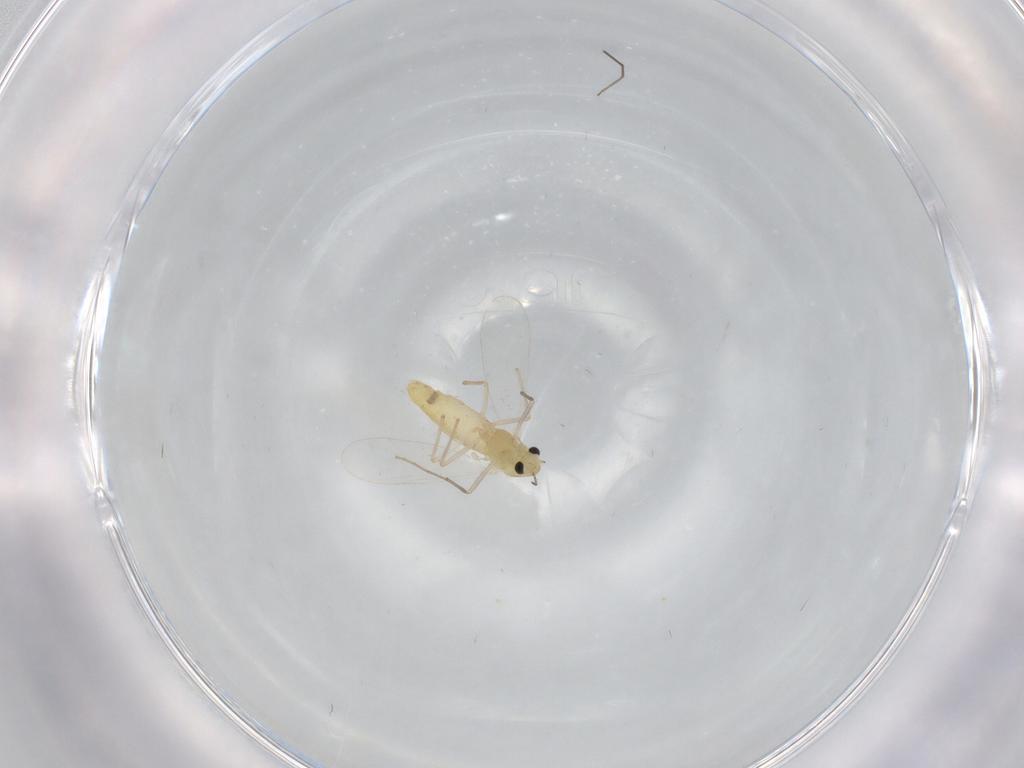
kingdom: Animalia
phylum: Arthropoda
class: Insecta
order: Diptera
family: Chironomidae
